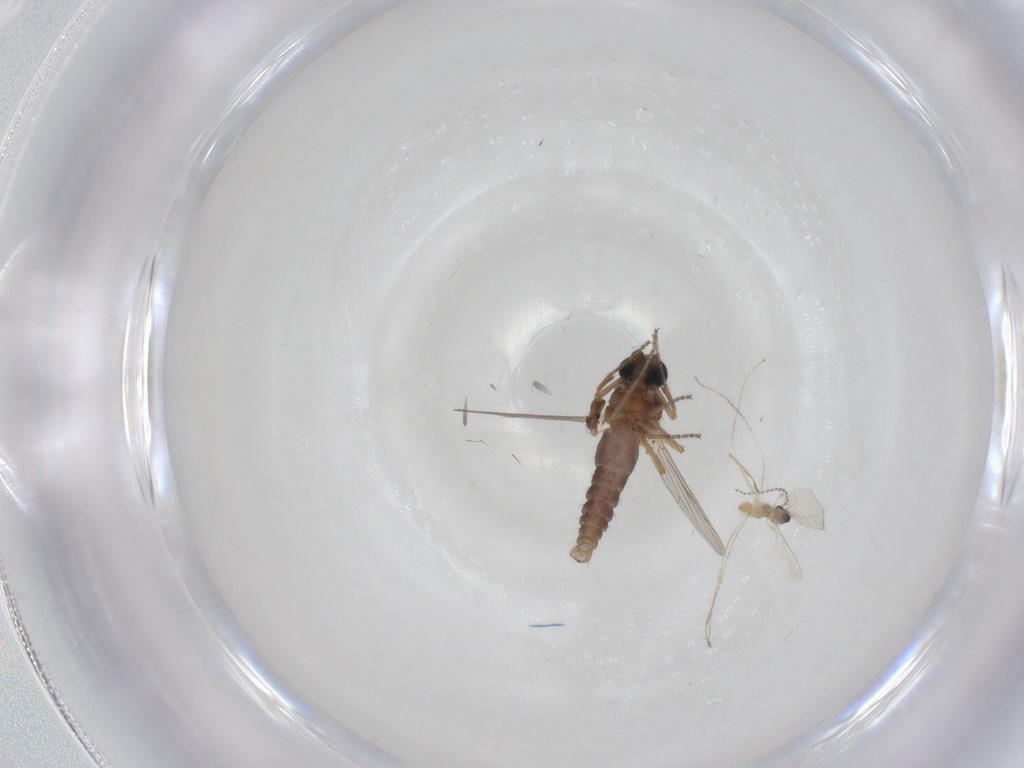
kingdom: Animalia
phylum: Arthropoda
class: Insecta
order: Diptera
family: Ceratopogonidae
